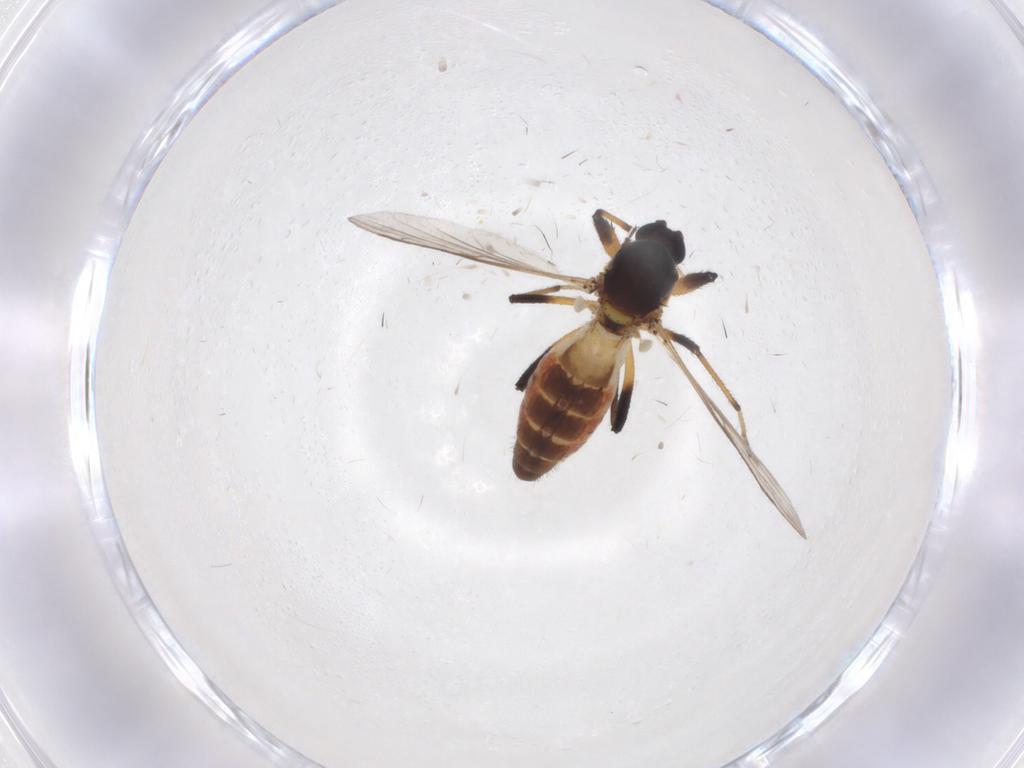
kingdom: Animalia
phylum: Arthropoda
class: Insecta
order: Diptera
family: Ceratopogonidae
